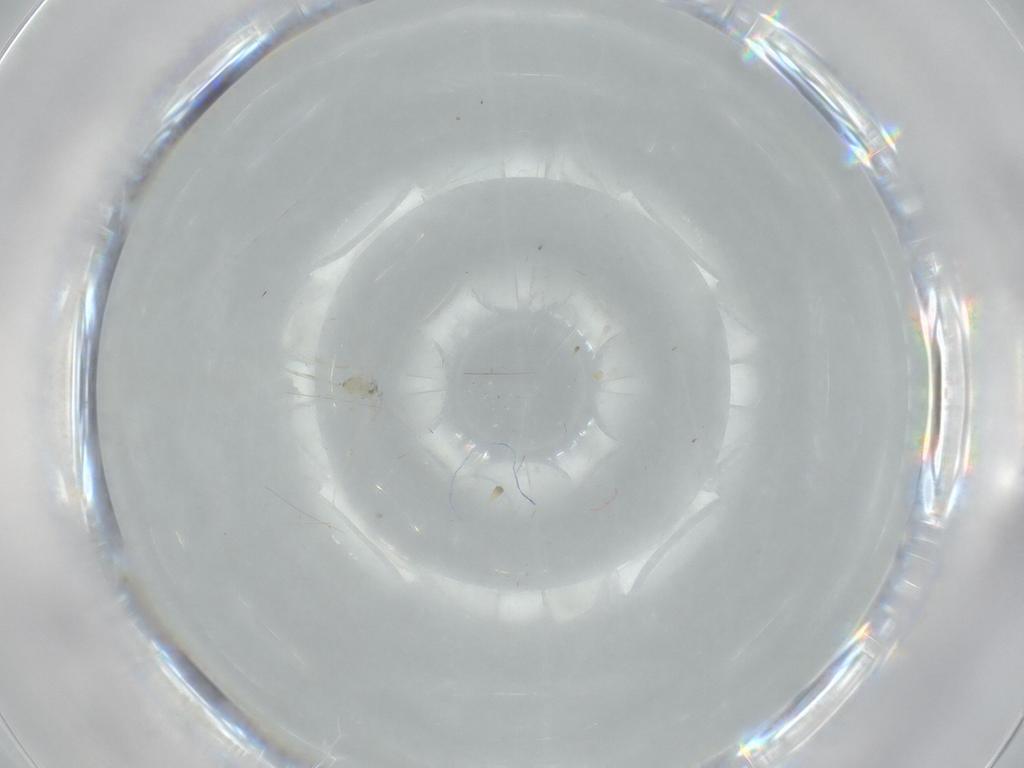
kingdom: Animalia
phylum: Arthropoda
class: Insecta
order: Diptera
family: Cecidomyiidae
